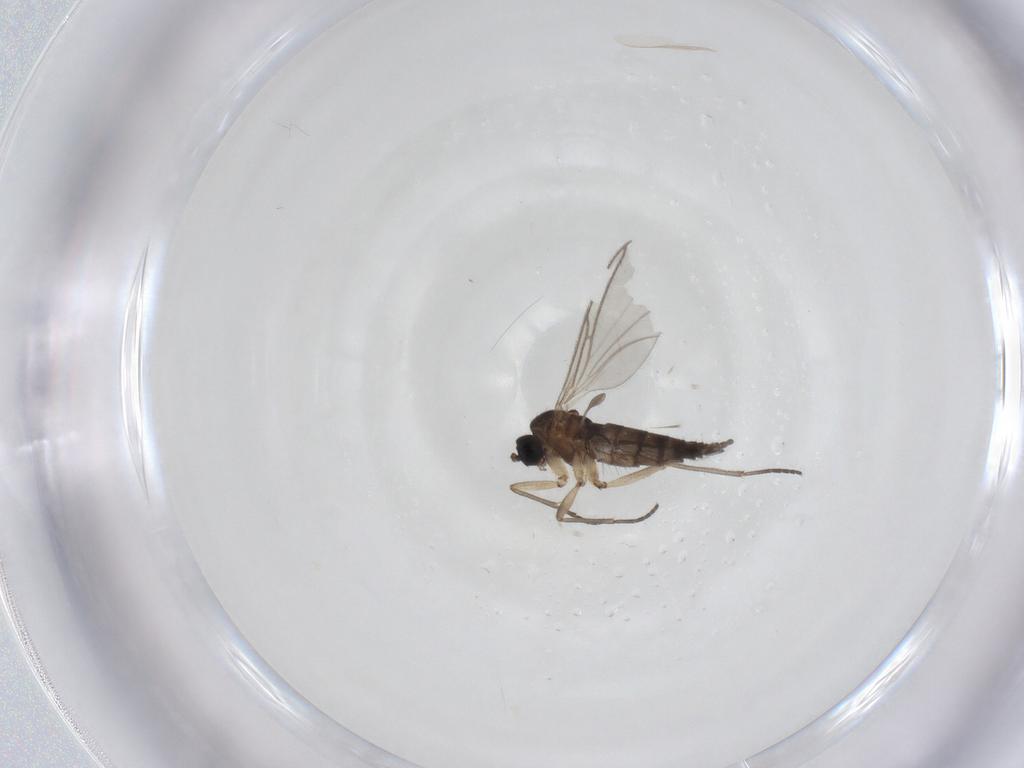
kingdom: Animalia
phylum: Arthropoda
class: Insecta
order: Diptera
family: Sciaridae
